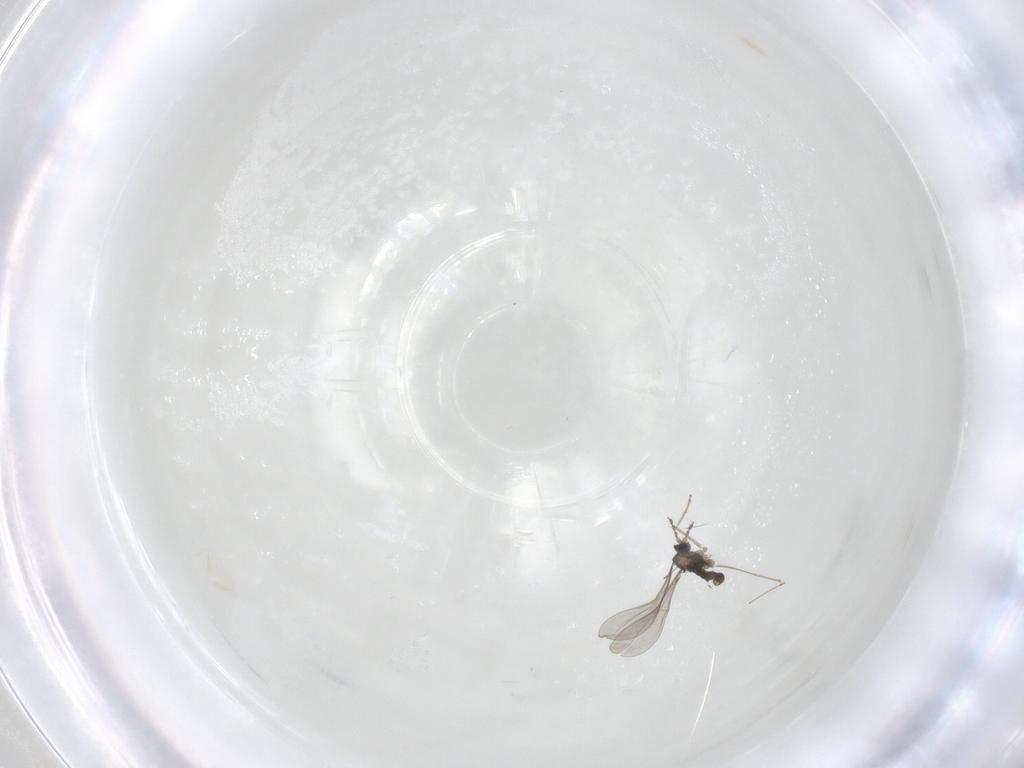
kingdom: Animalia
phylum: Arthropoda
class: Insecta
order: Diptera
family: Cecidomyiidae
